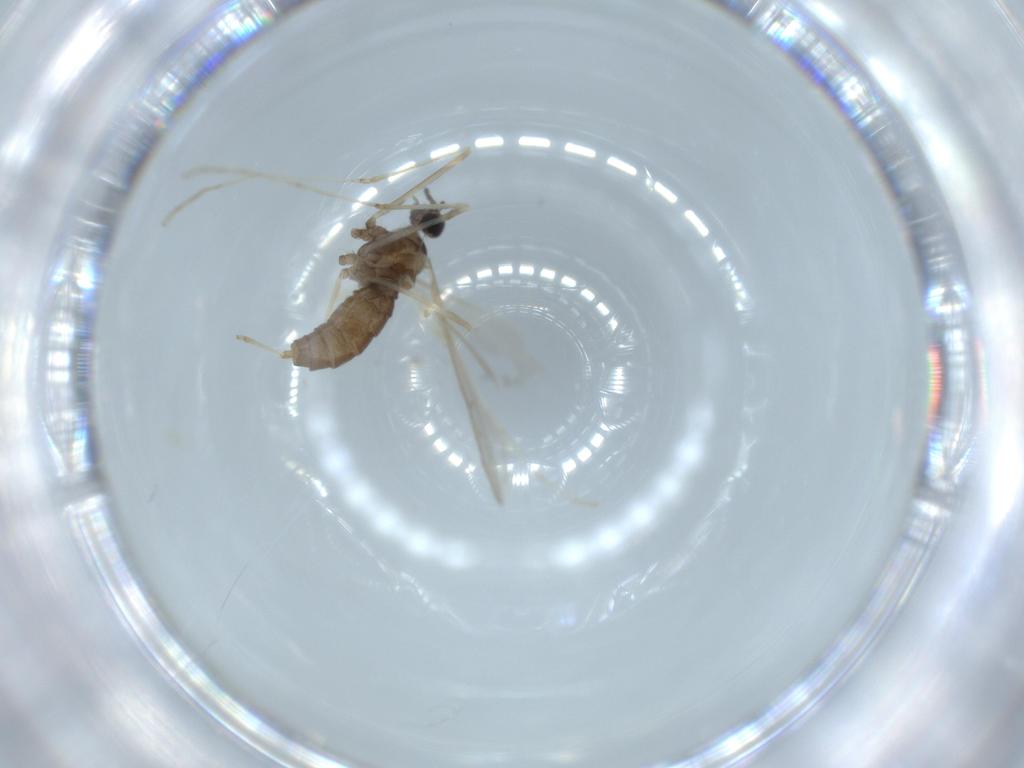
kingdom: Animalia
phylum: Arthropoda
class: Insecta
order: Diptera
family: Cecidomyiidae
